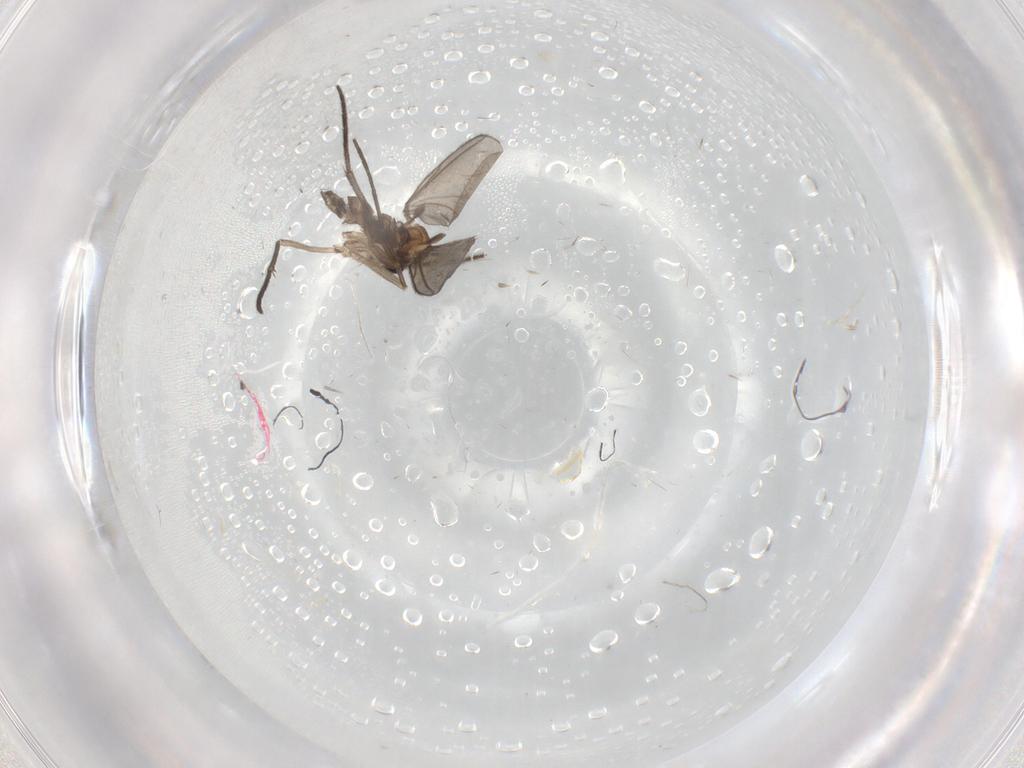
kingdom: Animalia
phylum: Arthropoda
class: Insecta
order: Diptera
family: Sciaridae
